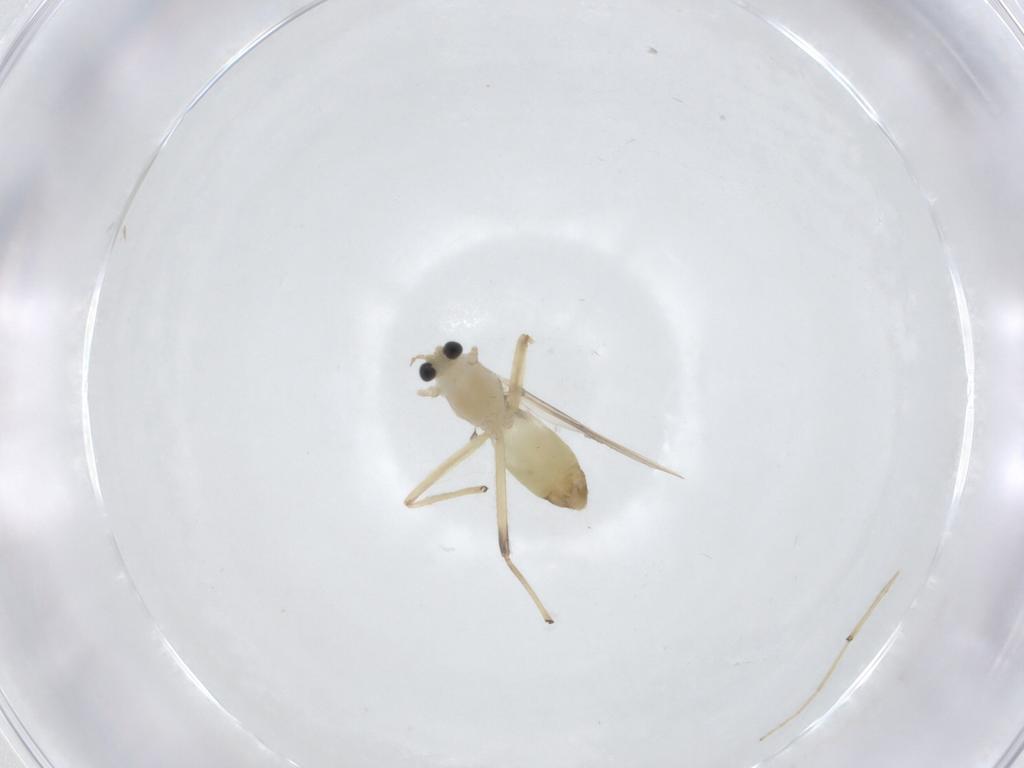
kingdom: Animalia
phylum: Arthropoda
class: Insecta
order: Diptera
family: Chironomidae
